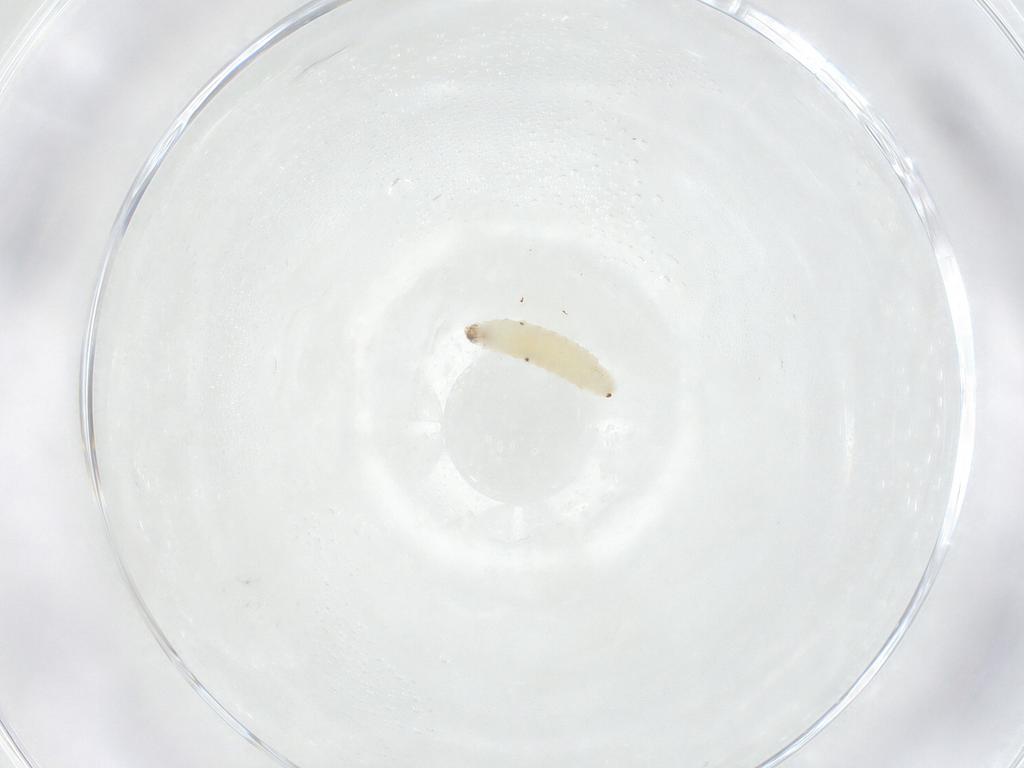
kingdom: Animalia
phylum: Arthropoda
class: Insecta
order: Diptera
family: Empididae
